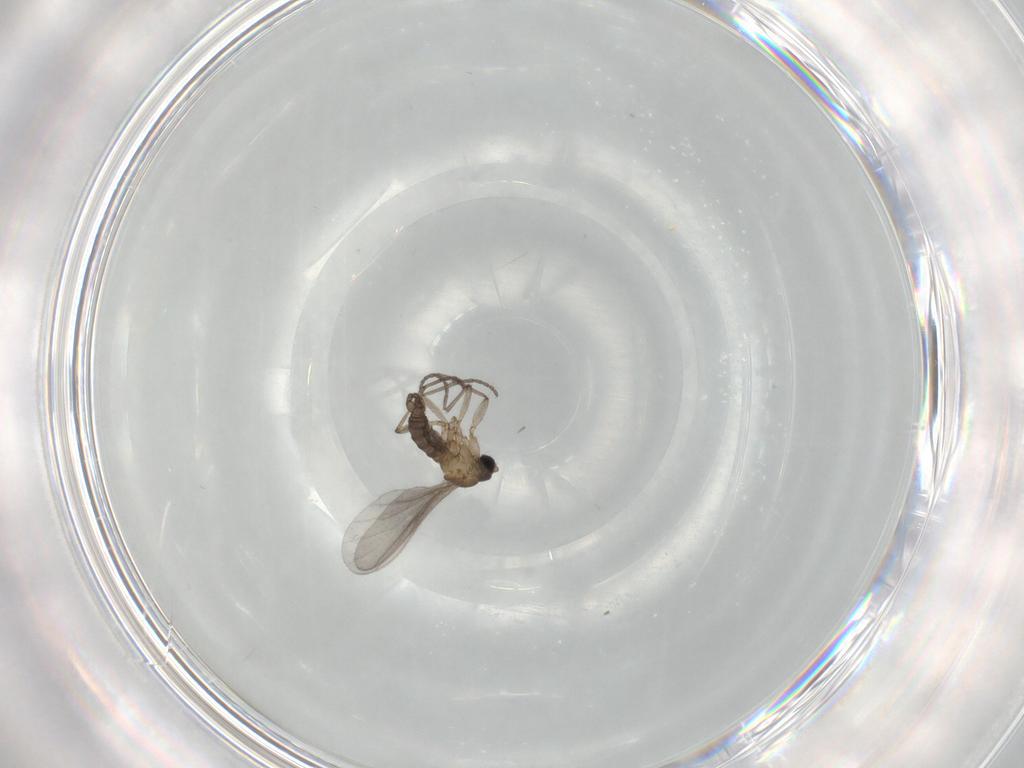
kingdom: Animalia
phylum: Arthropoda
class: Insecta
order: Diptera
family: Sciaridae
